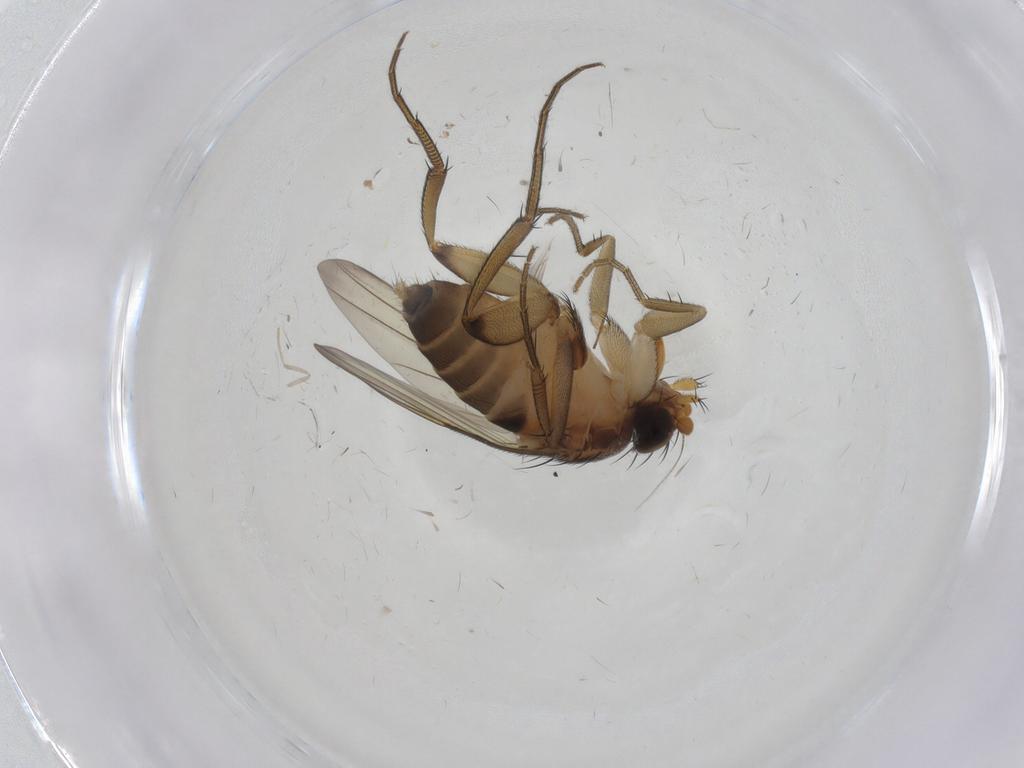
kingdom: Animalia
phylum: Arthropoda
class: Insecta
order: Diptera
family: Phoridae
